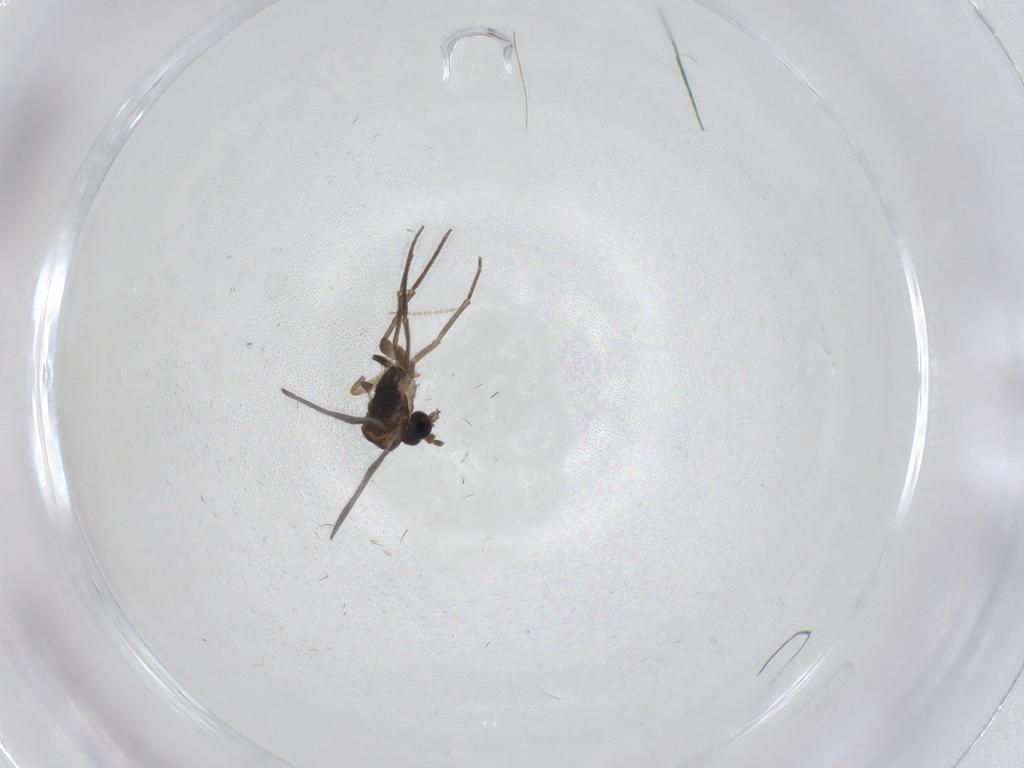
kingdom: Animalia
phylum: Arthropoda
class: Insecta
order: Diptera
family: Sciaridae
